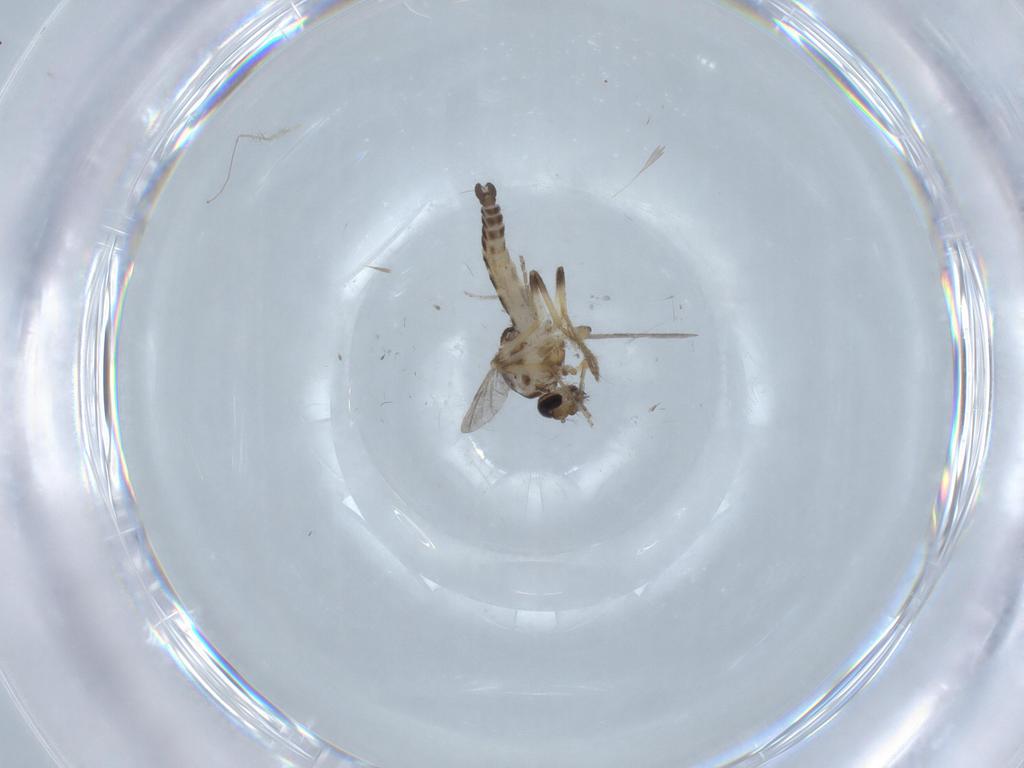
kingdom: Animalia
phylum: Arthropoda
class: Insecta
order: Diptera
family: Ceratopogonidae
